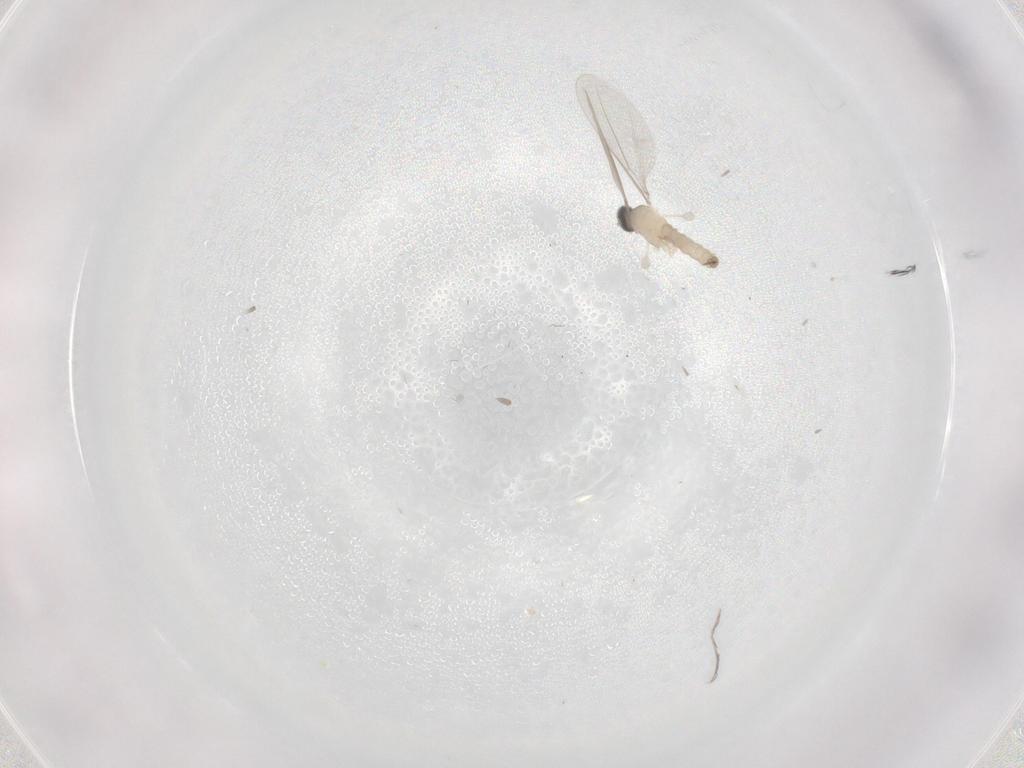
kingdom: Animalia
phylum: Arthropoda
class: Insecta
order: Diptera
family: Cecidomyiidae
